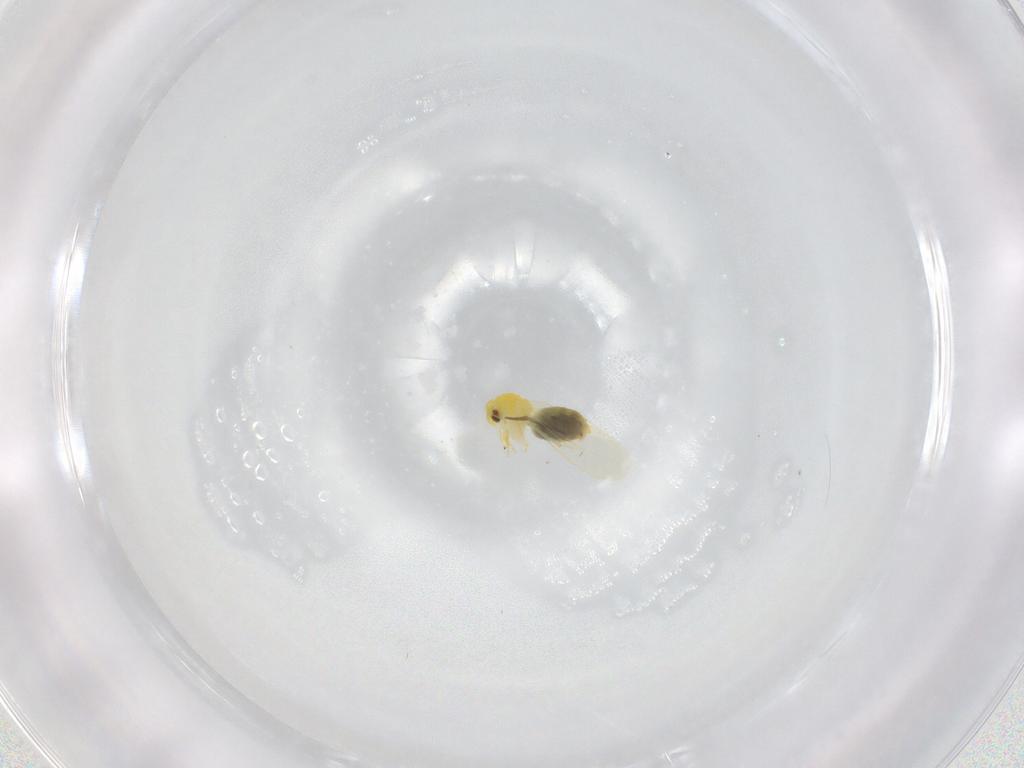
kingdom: Animalia
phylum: Arthropoda
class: Insecta
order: Hemiptera
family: Aleyrodidae
